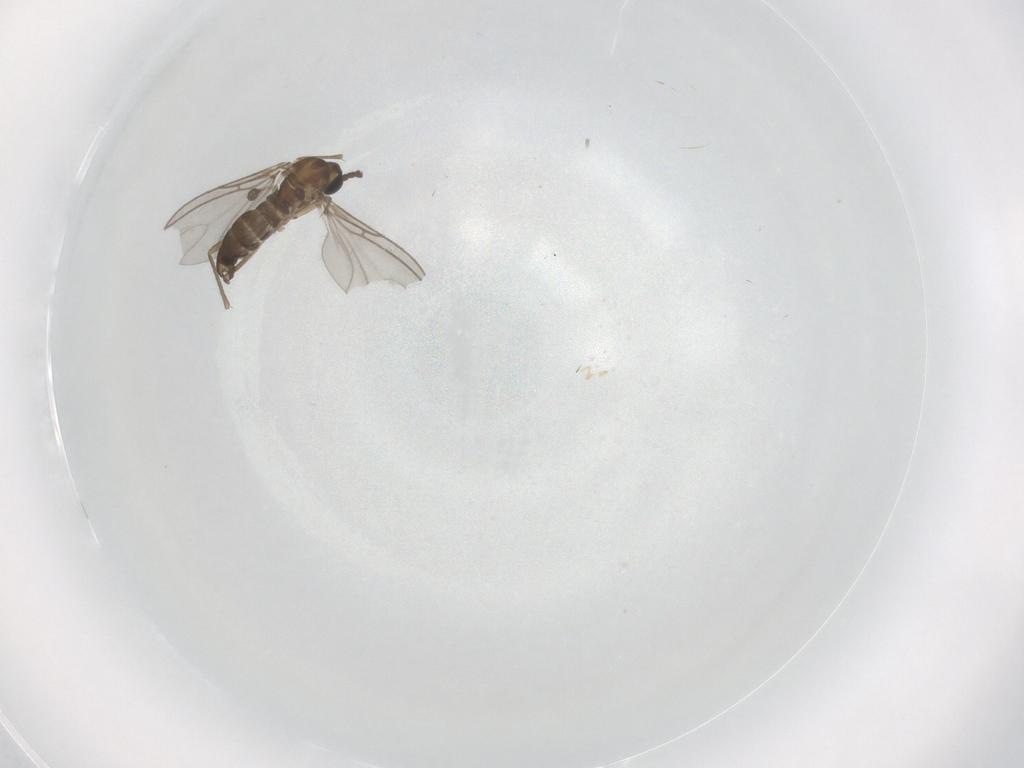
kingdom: Animalia
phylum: Arthropoda
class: Insecta
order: Diptera
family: Sciaridae
